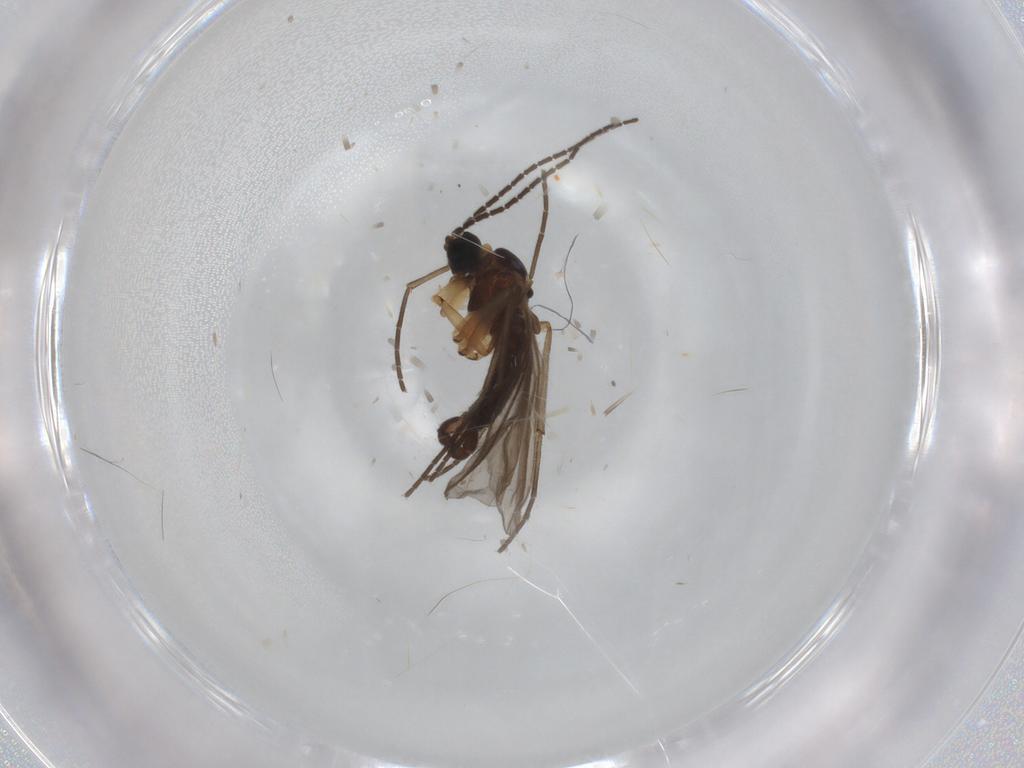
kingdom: Animalia
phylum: Arthropoda
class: Insecta
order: Diptera
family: Sciaridae
